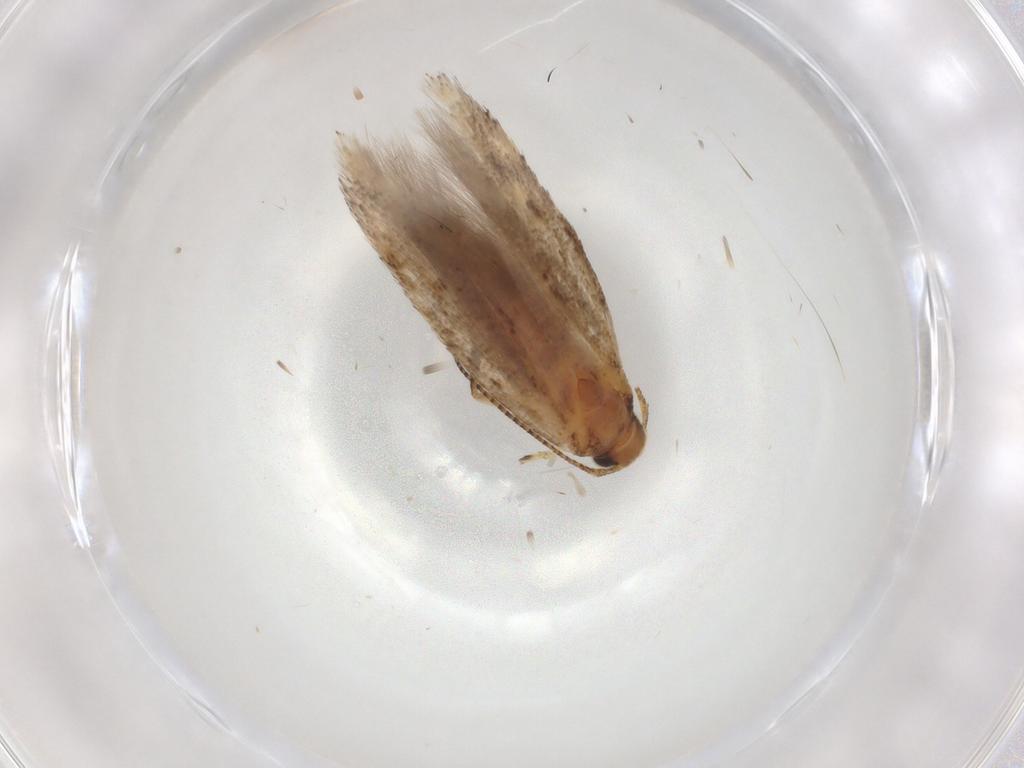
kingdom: Animalia
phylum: Arthropoda
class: Insecta
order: Lepidoptera
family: Gelechiidae
